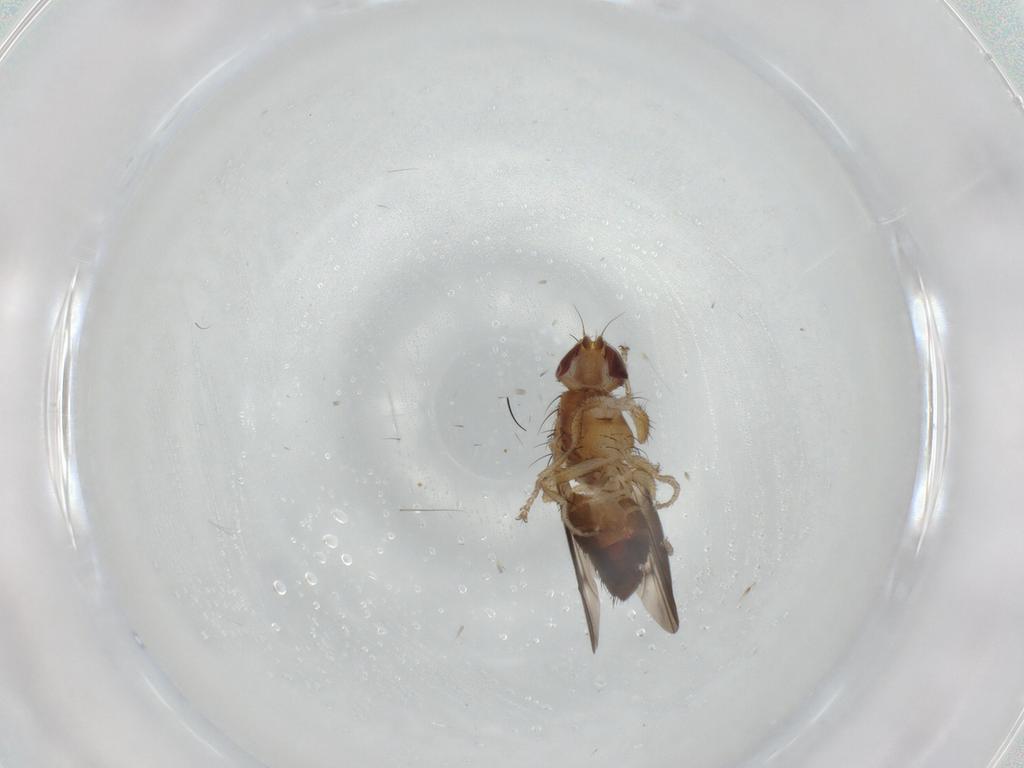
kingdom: Animalia
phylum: Arthropoda
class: Insecta
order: Diptera
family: Heleomyzidae
